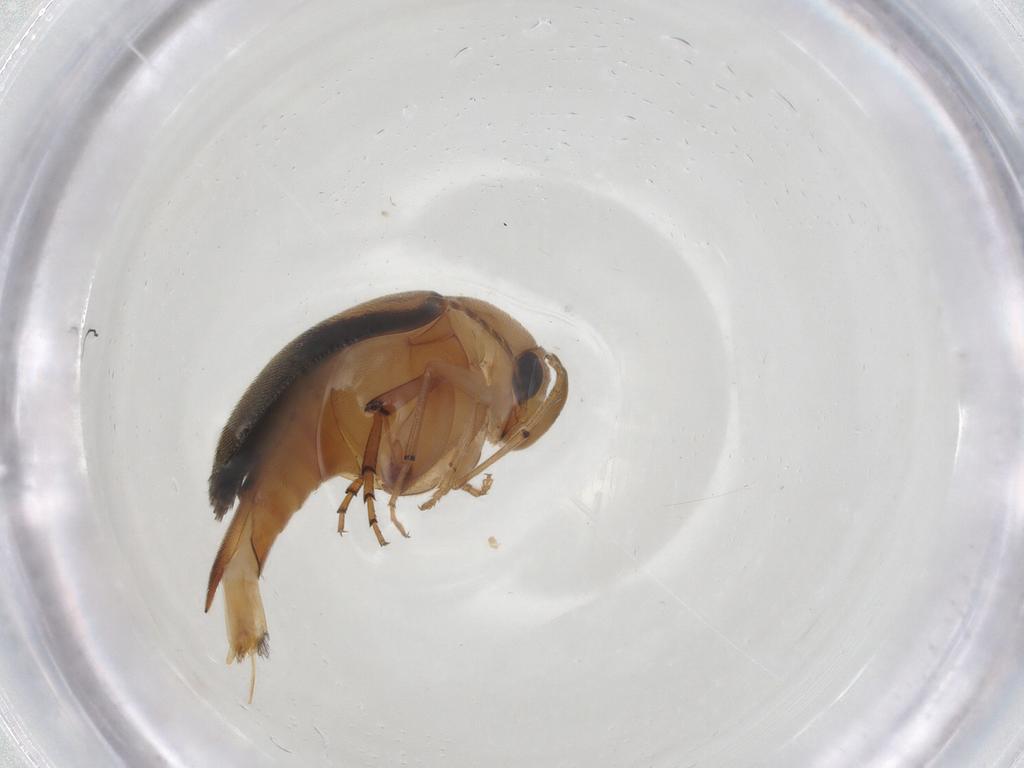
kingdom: Animalia
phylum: Arthropoda
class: Insecta
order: Coleoptera
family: Mordellidae
